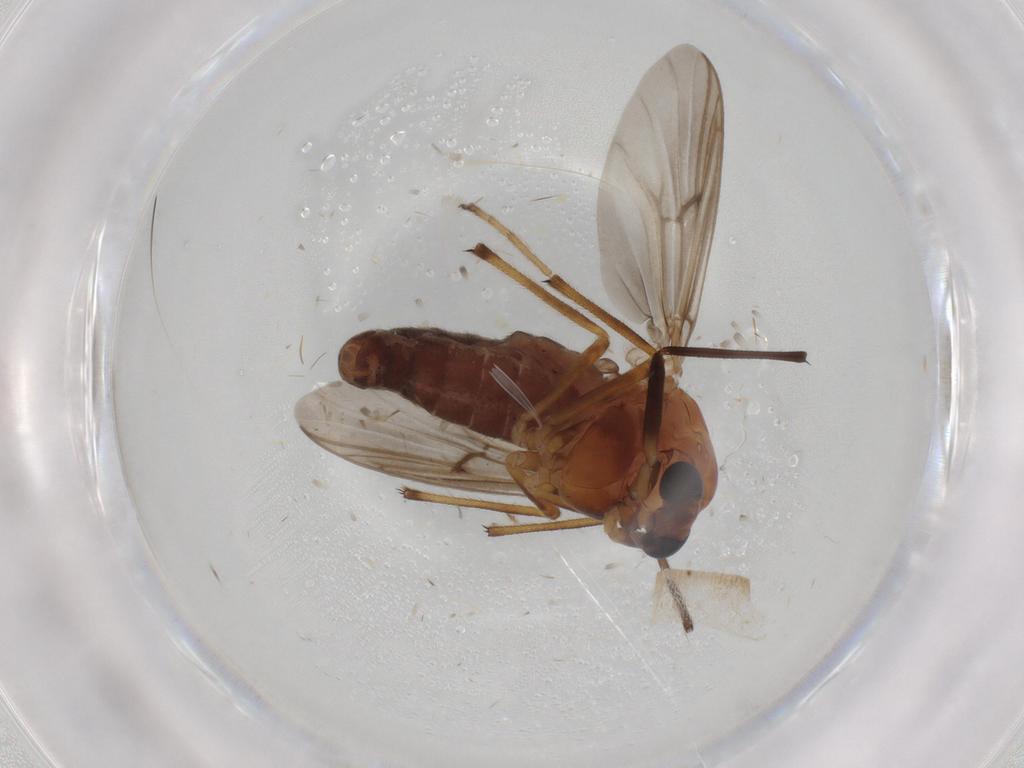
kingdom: Animalia
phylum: Arthropoda
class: Insecta
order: Diptera
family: Chironomidae
